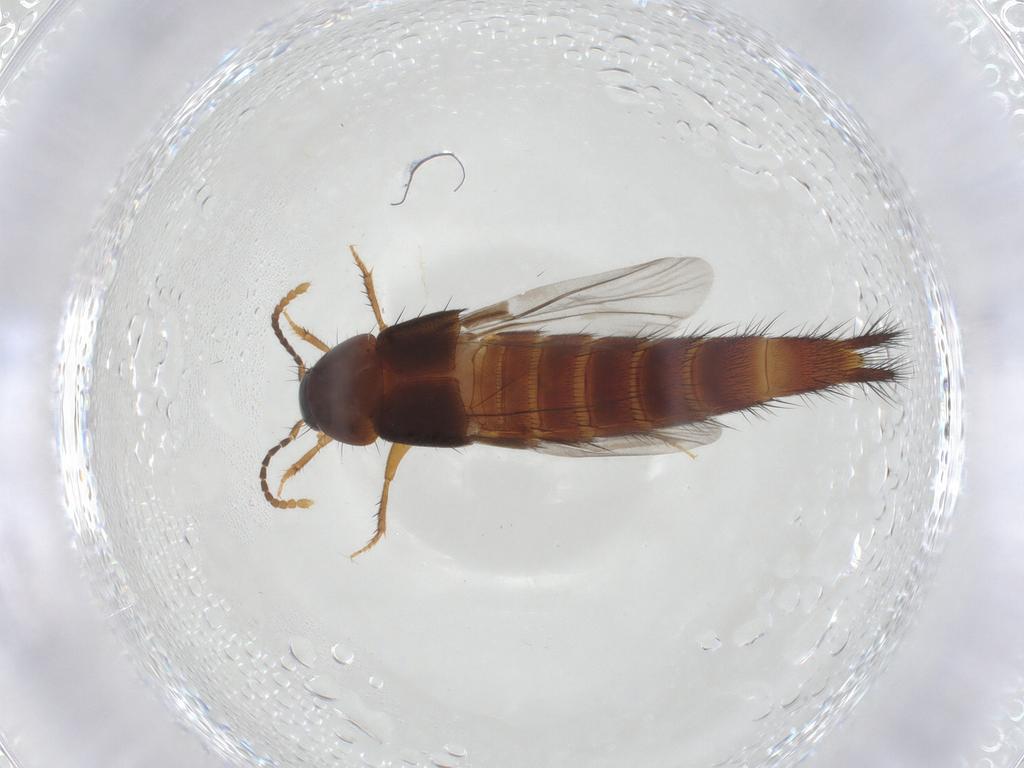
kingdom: Animalia
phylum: Arthropoda
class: Insecta
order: Coleoptera
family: Staphylinidae
